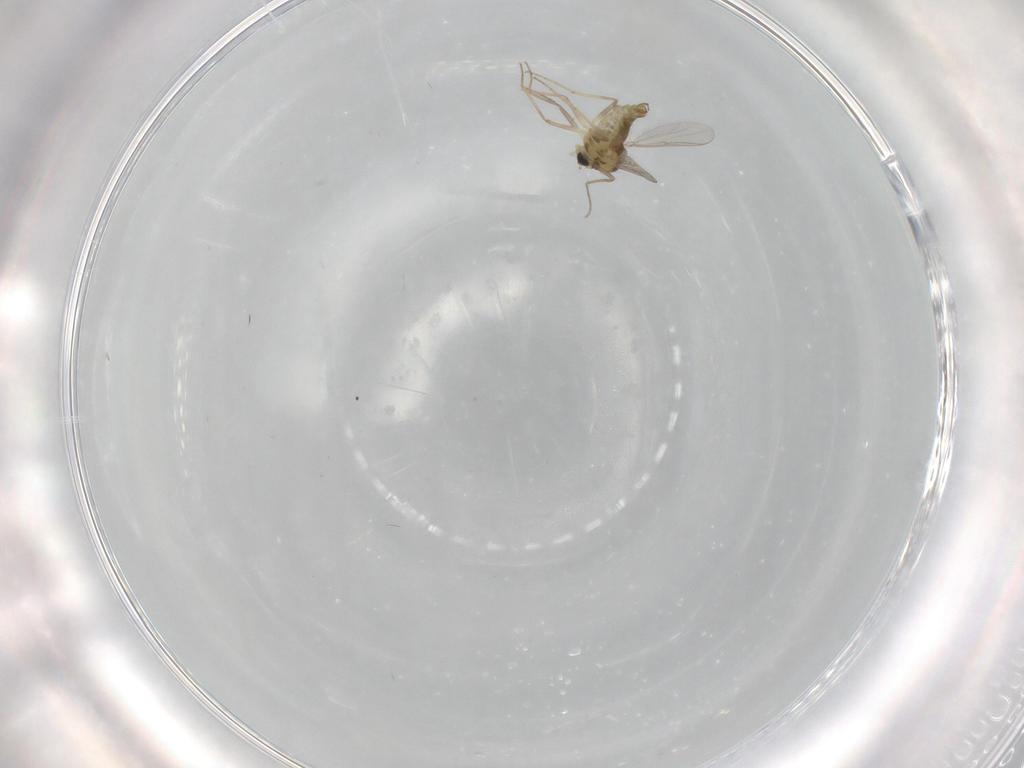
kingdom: Animalia
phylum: Arthropoda
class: Insecta
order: Diptera
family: Chironomidae
